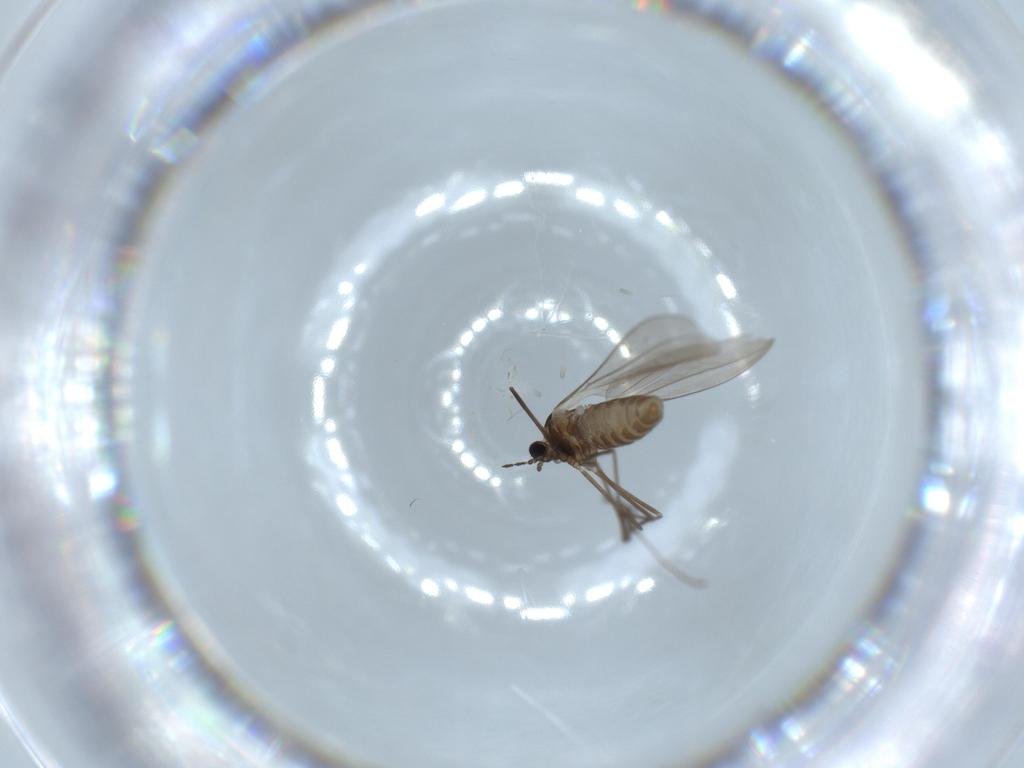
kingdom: Animalia
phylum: Arthropoda
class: Insecta
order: Diptera
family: Cecidomyiidae
